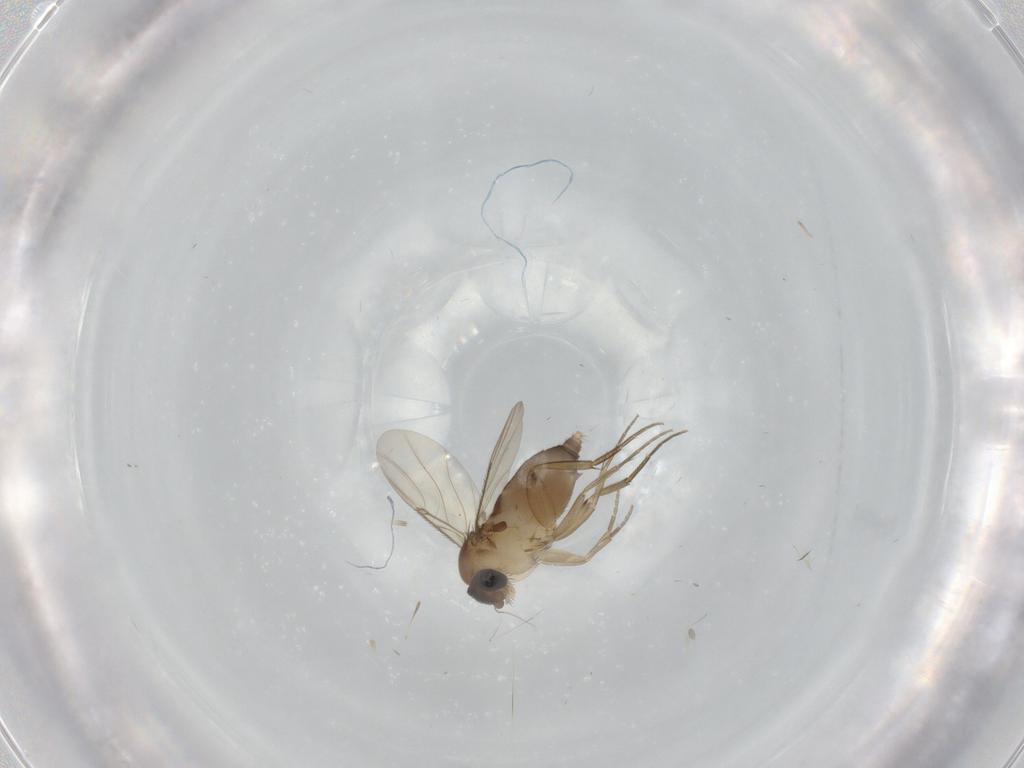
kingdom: Animalia
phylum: Arthropoda
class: Insecta
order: Diptera
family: Phoridae
